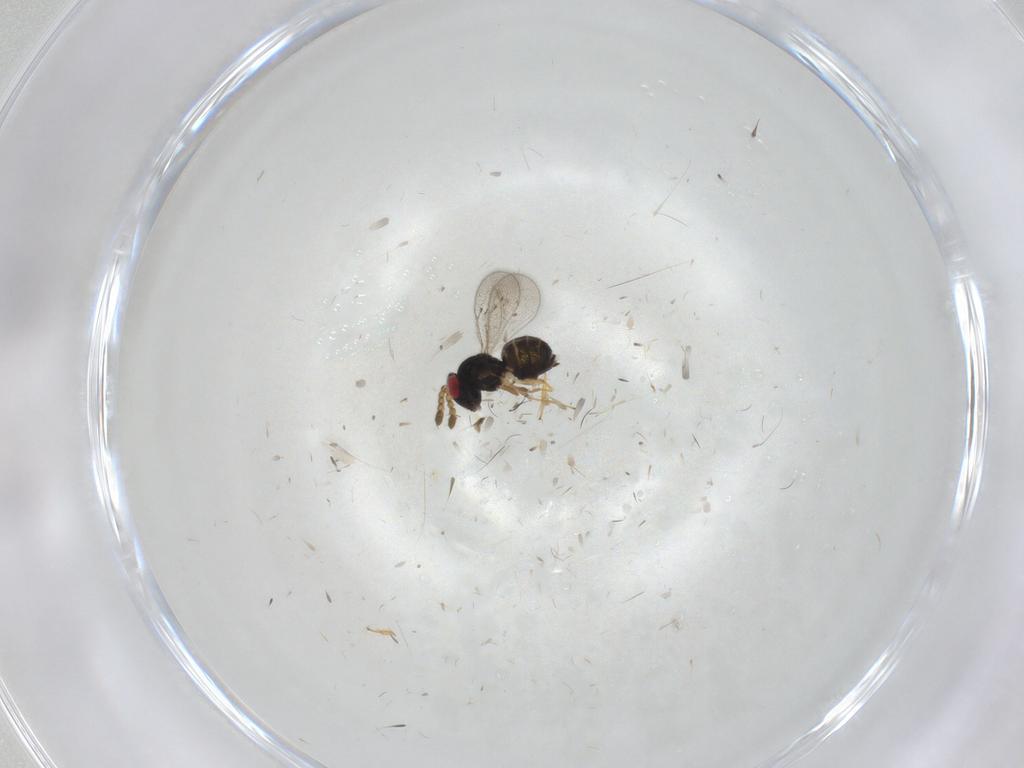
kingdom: Animalia
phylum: Arthropoda
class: Insecta
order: Hymenoptera
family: Eulophidae
